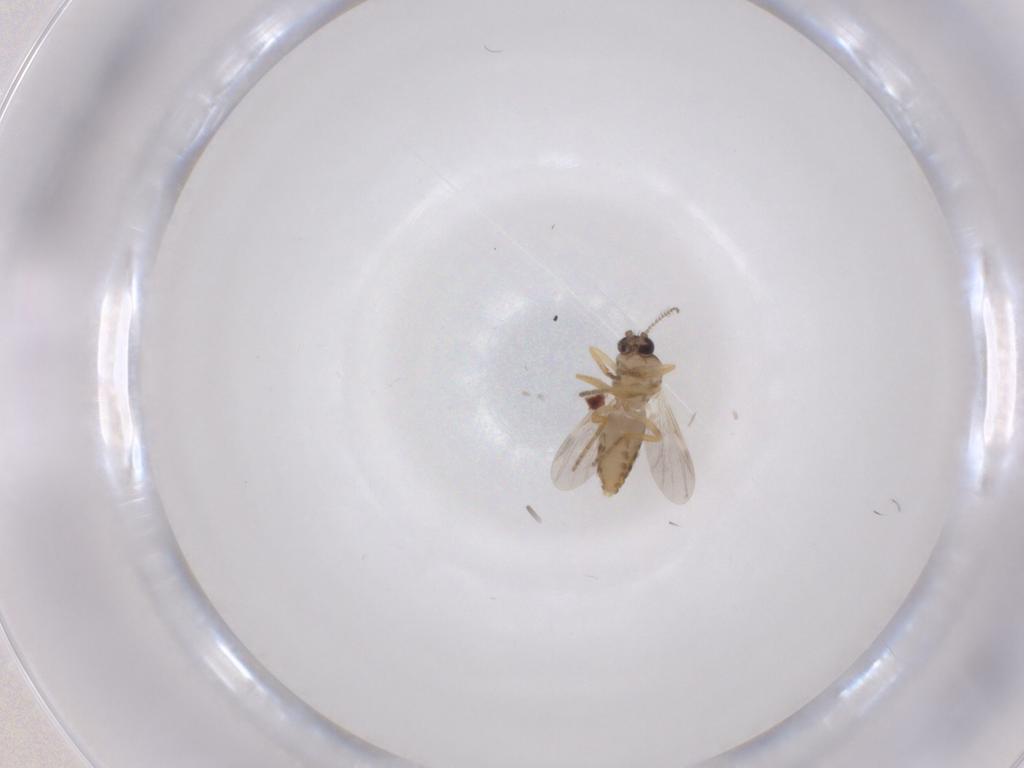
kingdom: Animalia
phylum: Arthropoda
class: Insecta
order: Diptera
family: Ceratopogonidae
